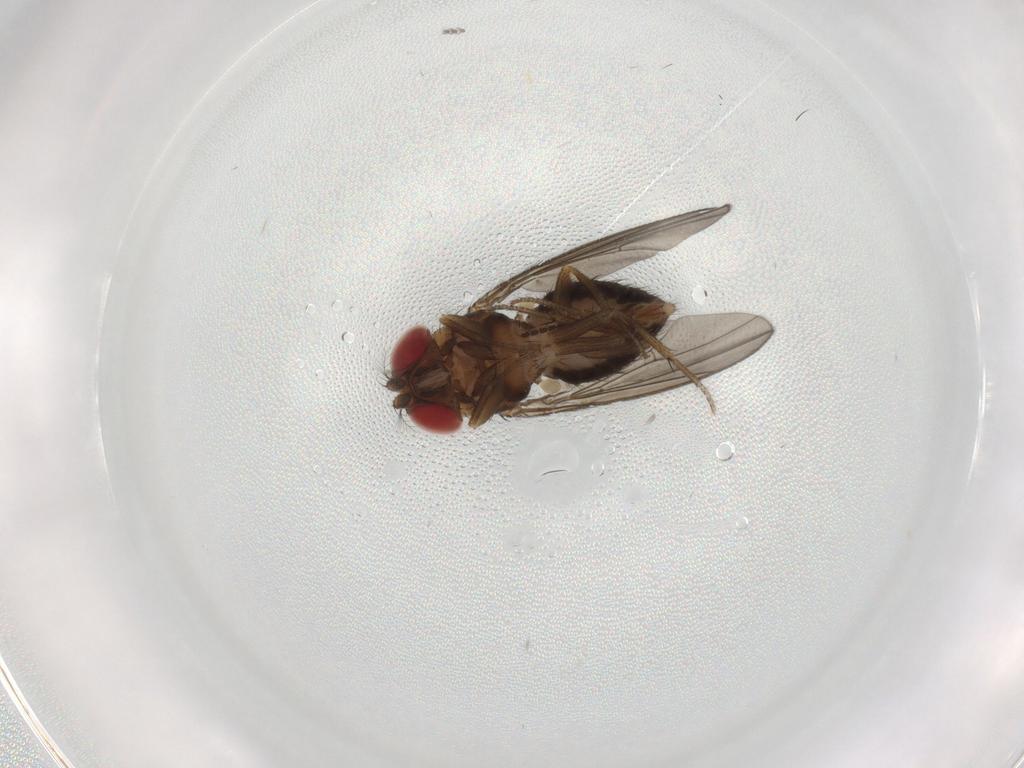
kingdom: Animalia
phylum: Arthropoda
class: Insecta
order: Diptera
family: Drosophilidae
